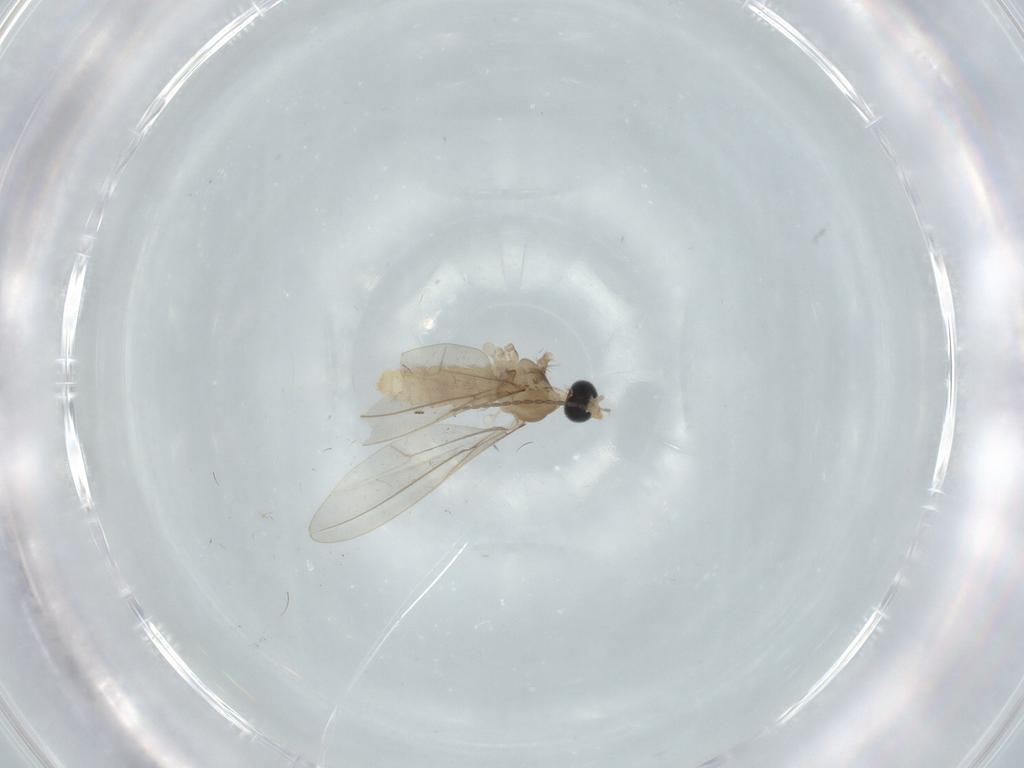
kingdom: Animalia
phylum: Arthropoda
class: Insecta
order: Diptera
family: Cecidomyiidae
